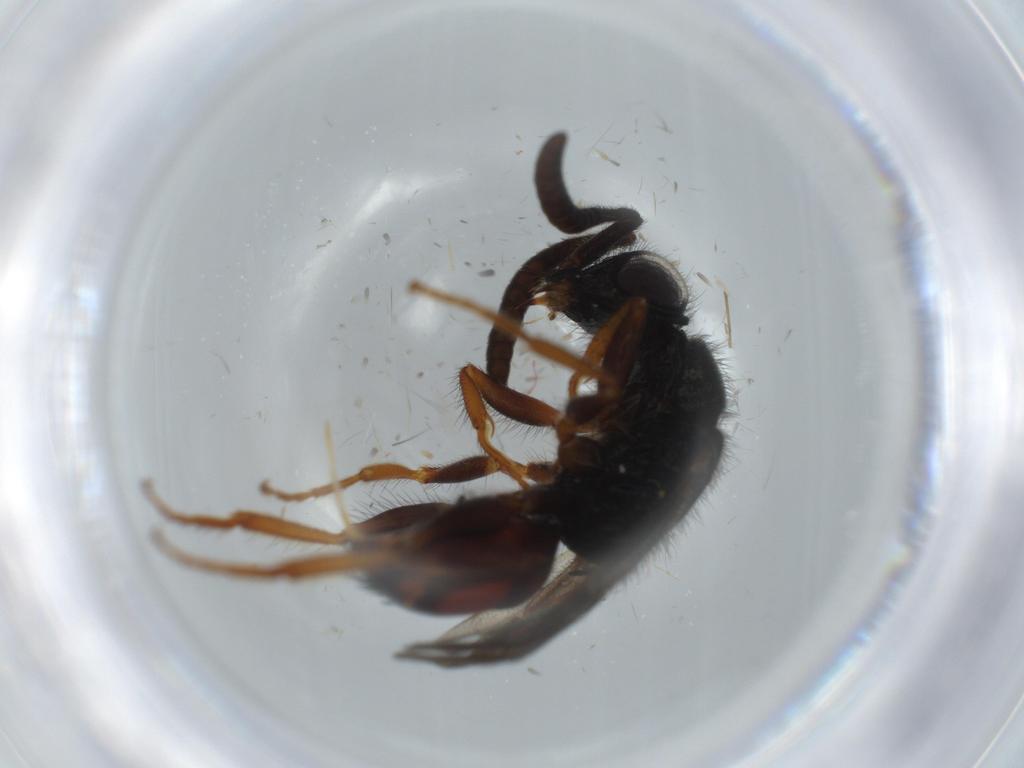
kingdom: Animalia
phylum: Arthropoda
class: Insecta
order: Hymenoptera
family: Chrysididae
